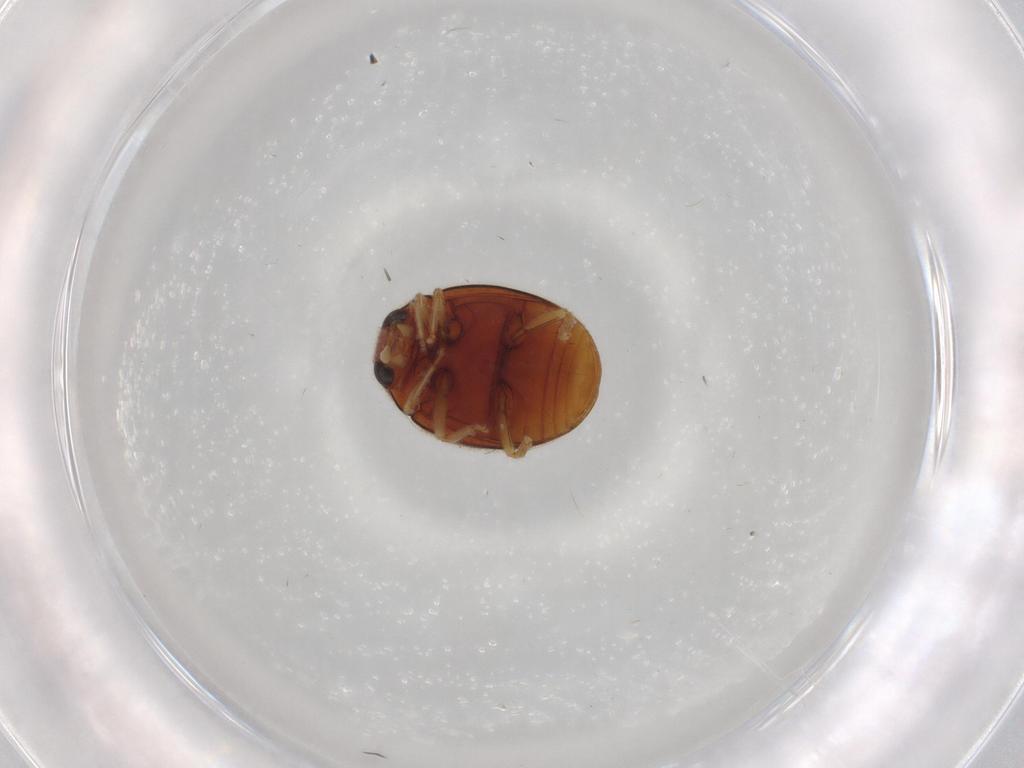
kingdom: Animalia
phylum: Arthropoda
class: Insecta
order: Coleoptera
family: Coccinellidae
